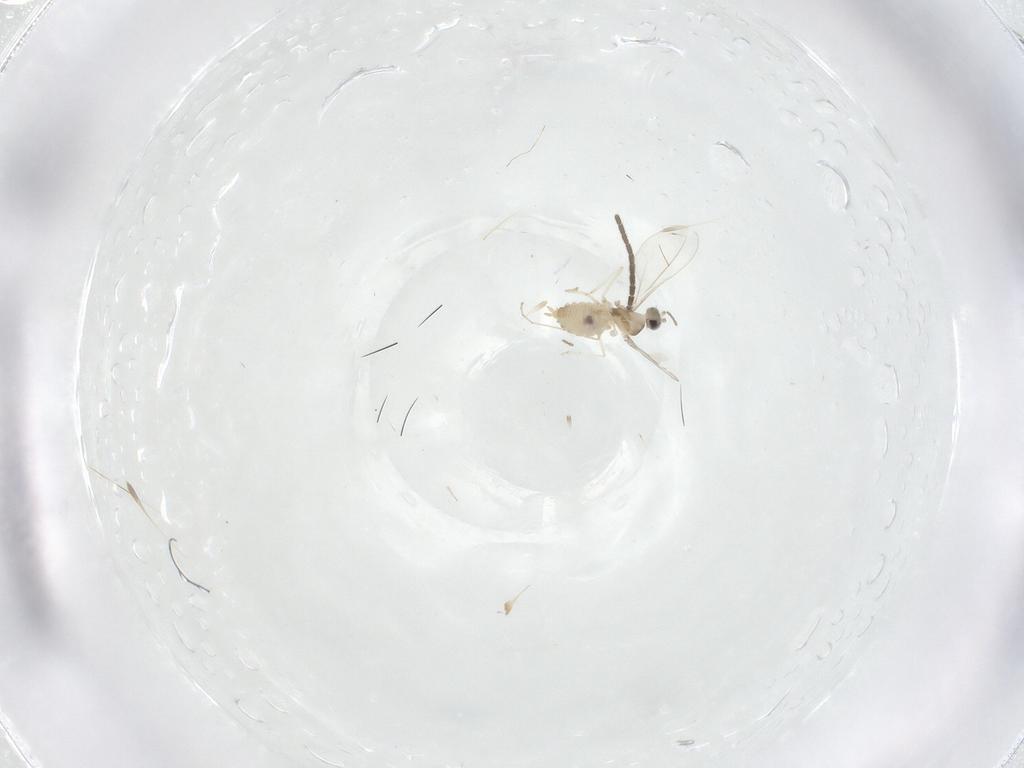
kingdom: Animalia
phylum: Arthropoda
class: Insecta
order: Diptera
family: Cecidomyiidae
